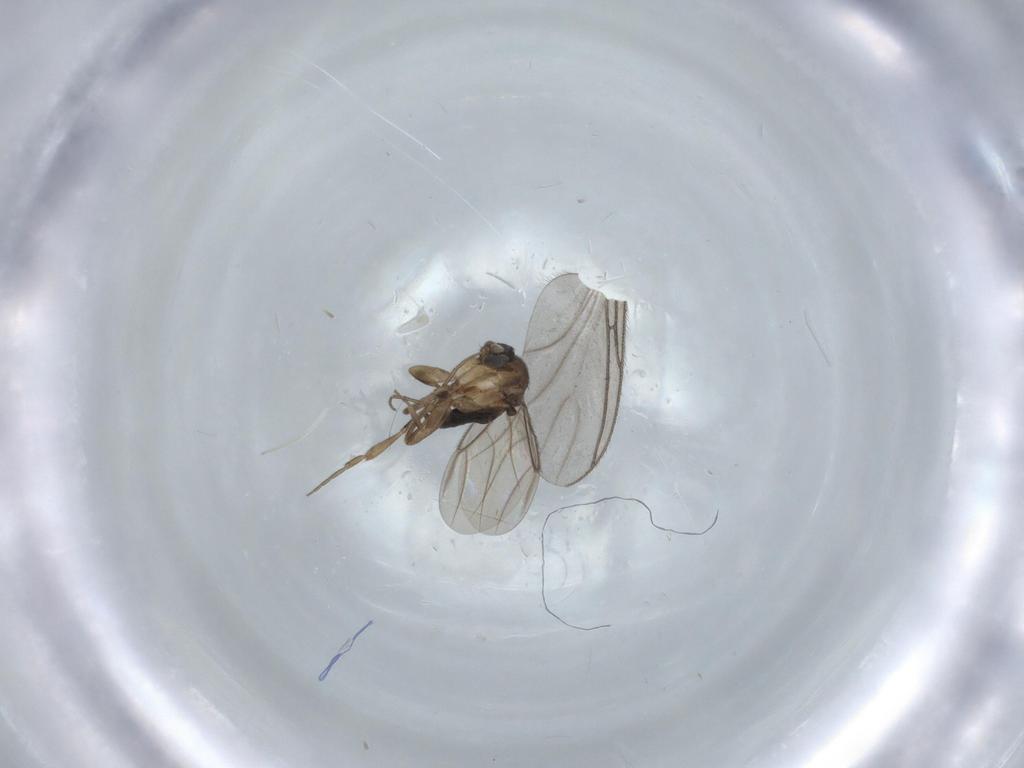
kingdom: Animalia
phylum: Arthropoda
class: Insecta
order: Diptera
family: Phoridae
